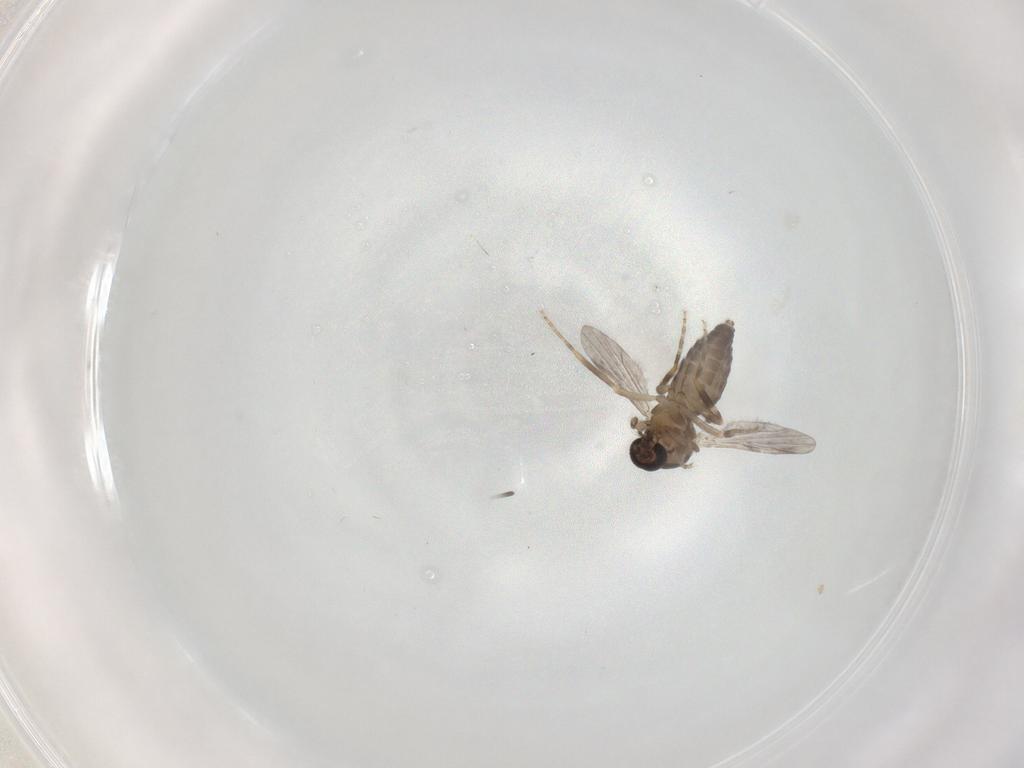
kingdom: Animalia
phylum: Arthropoda
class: Insecta
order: Diptera
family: Ceratopogonidae
